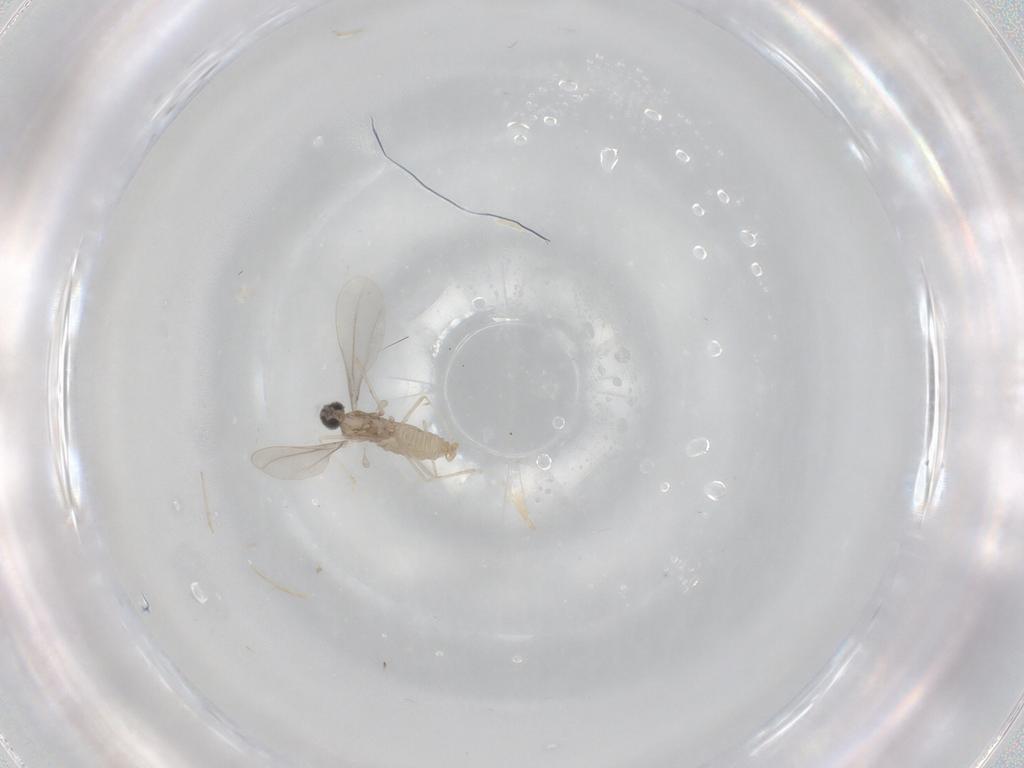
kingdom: Animalia
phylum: Arthropoda
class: Insecta
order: Diptera
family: Cecidomyiidae
